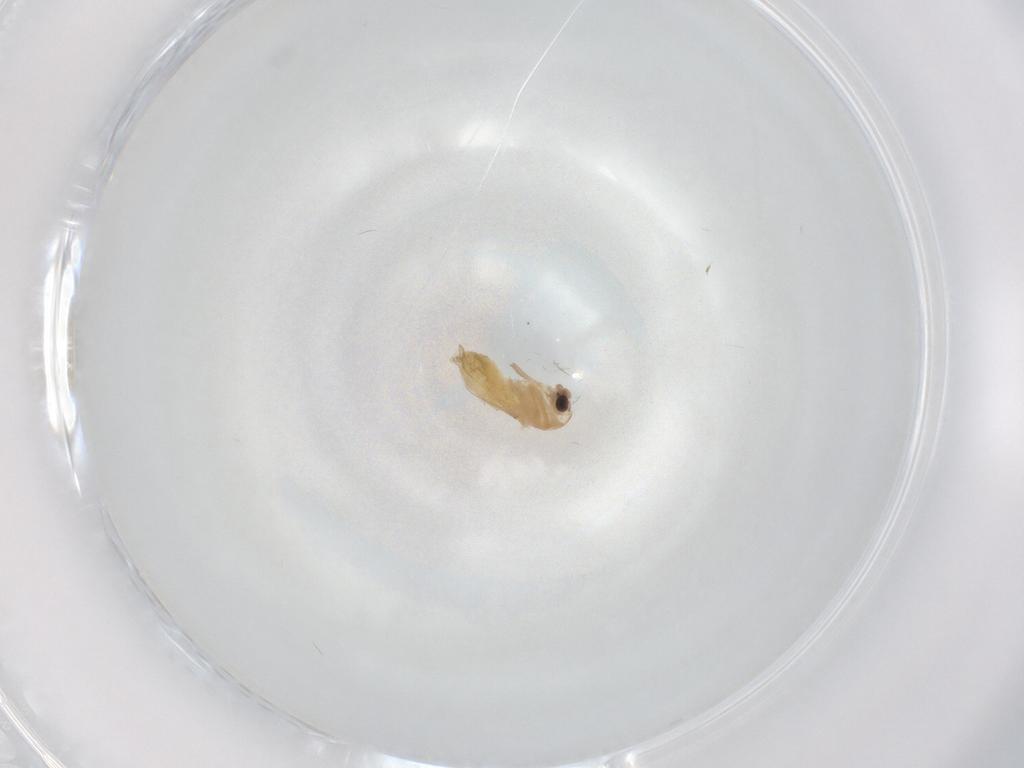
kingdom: Animalia
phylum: Arthropoda
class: Insecta
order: Diptera
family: Chironomidae
